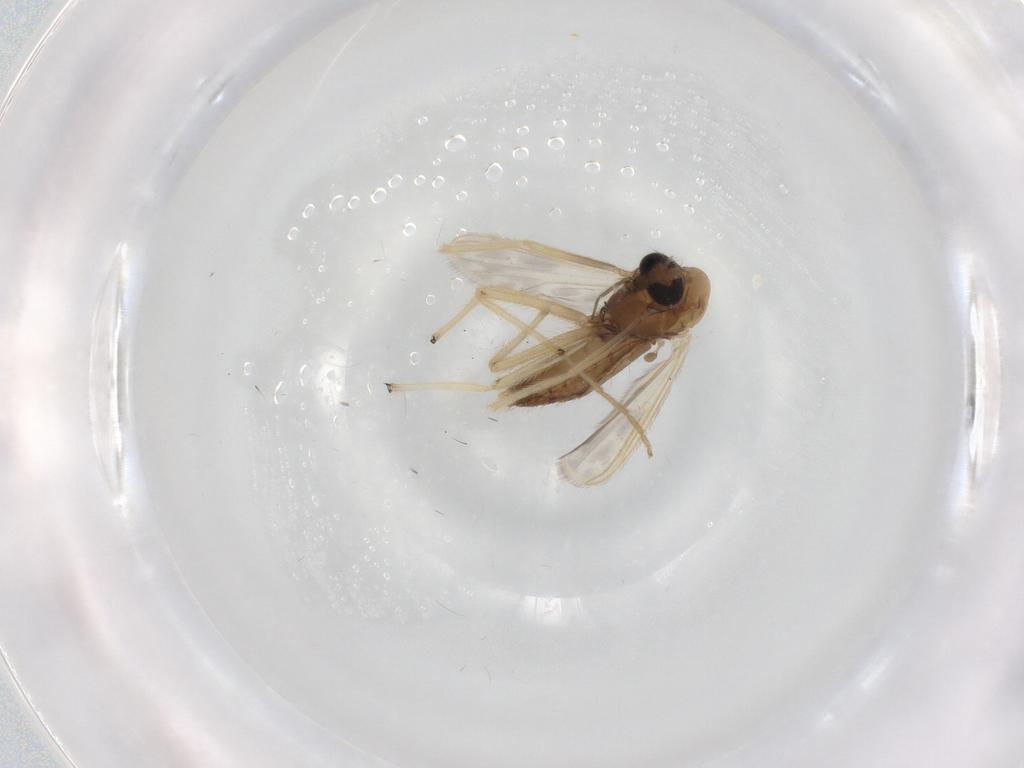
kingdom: Animalia
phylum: Arthropoda
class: Insecta
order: Diptera
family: Chironomidae
